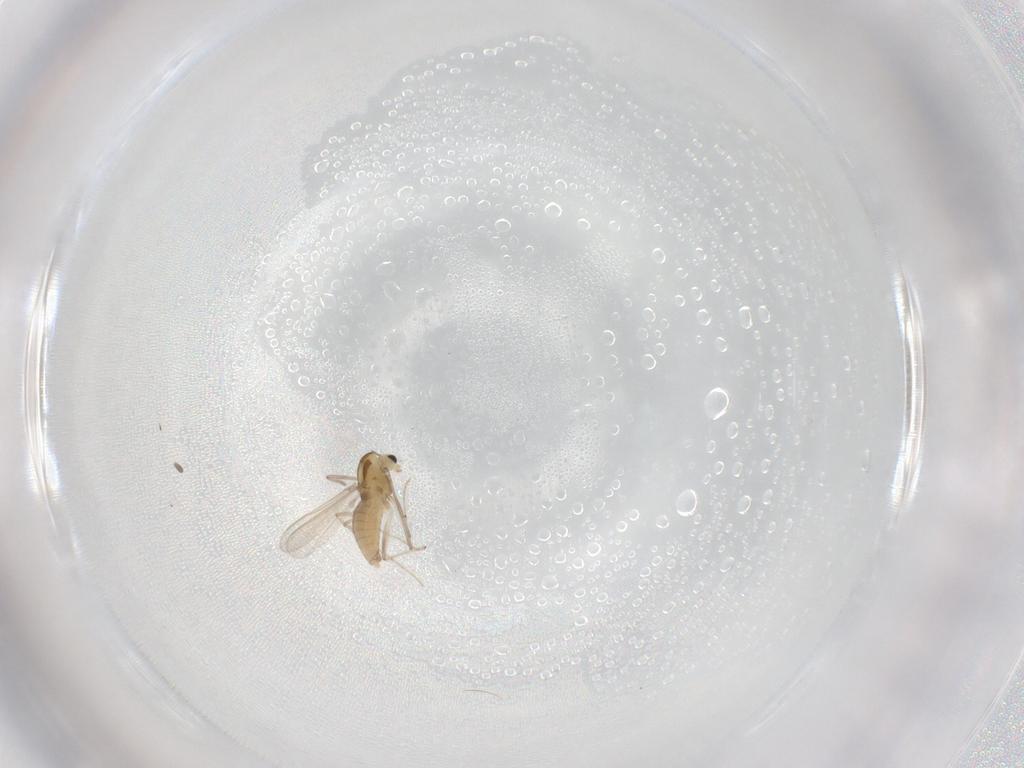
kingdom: Animalia
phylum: Arthropoda
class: Insecta
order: Diptera
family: Chironomidae
